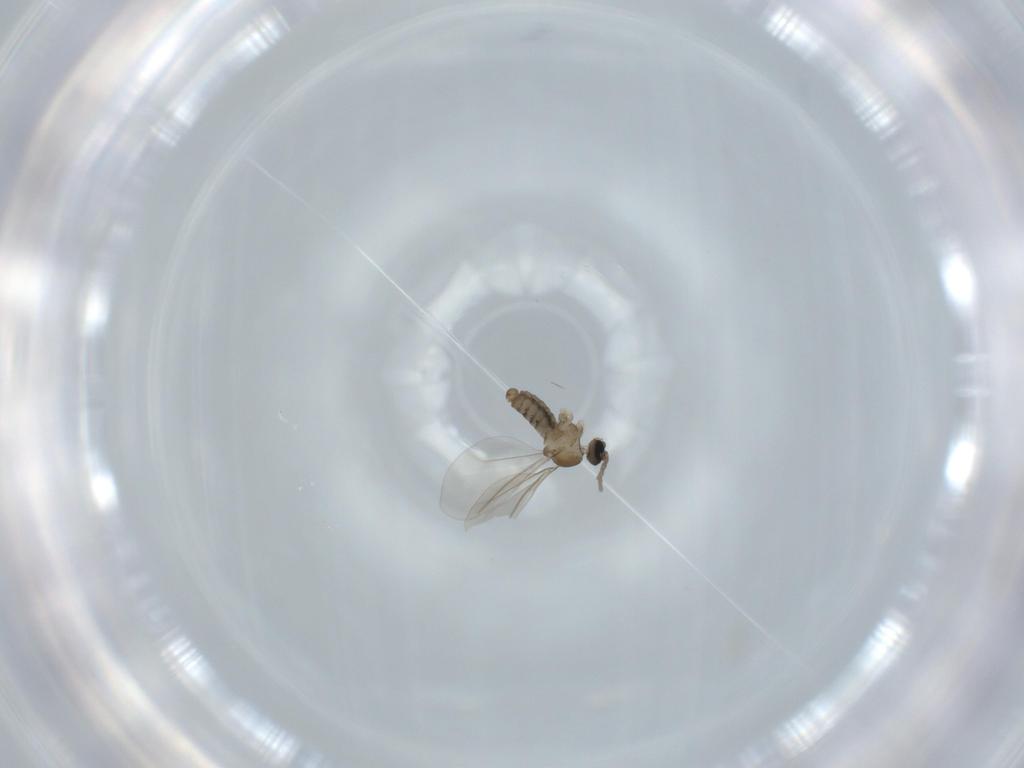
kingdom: Animalia
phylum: Arthropoda
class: Insecta
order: Diptera
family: Cecidomyiidae
